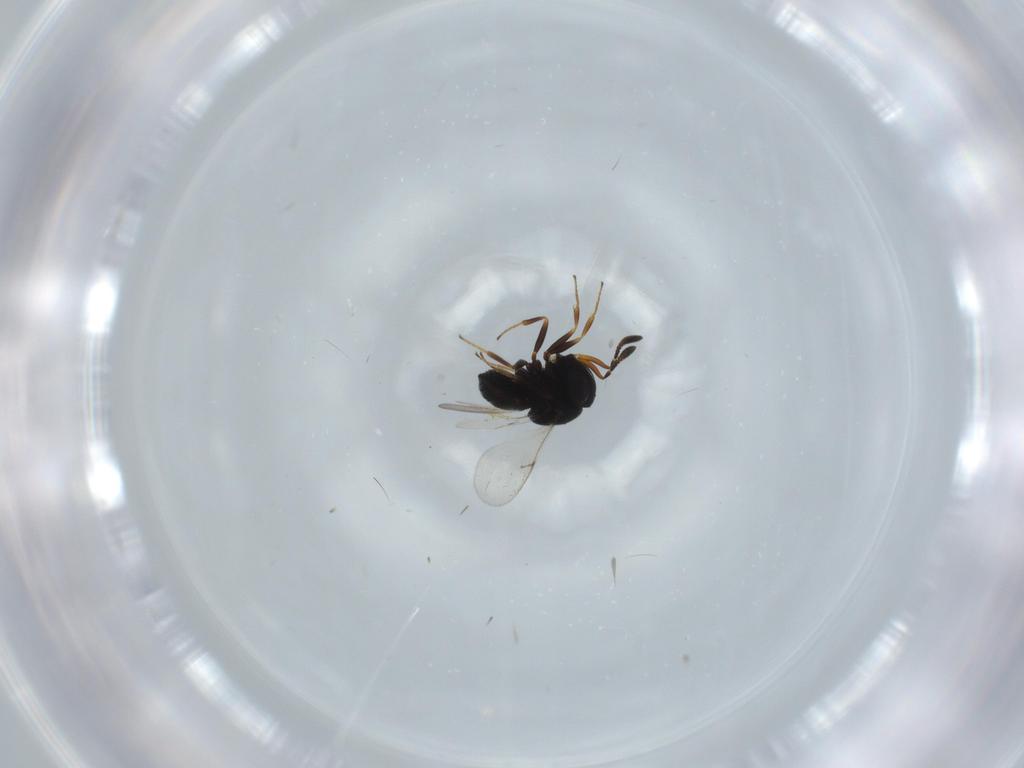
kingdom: Animalia
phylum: Arthropoda
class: Insecta
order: Hymenoptera
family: Scelionidae
